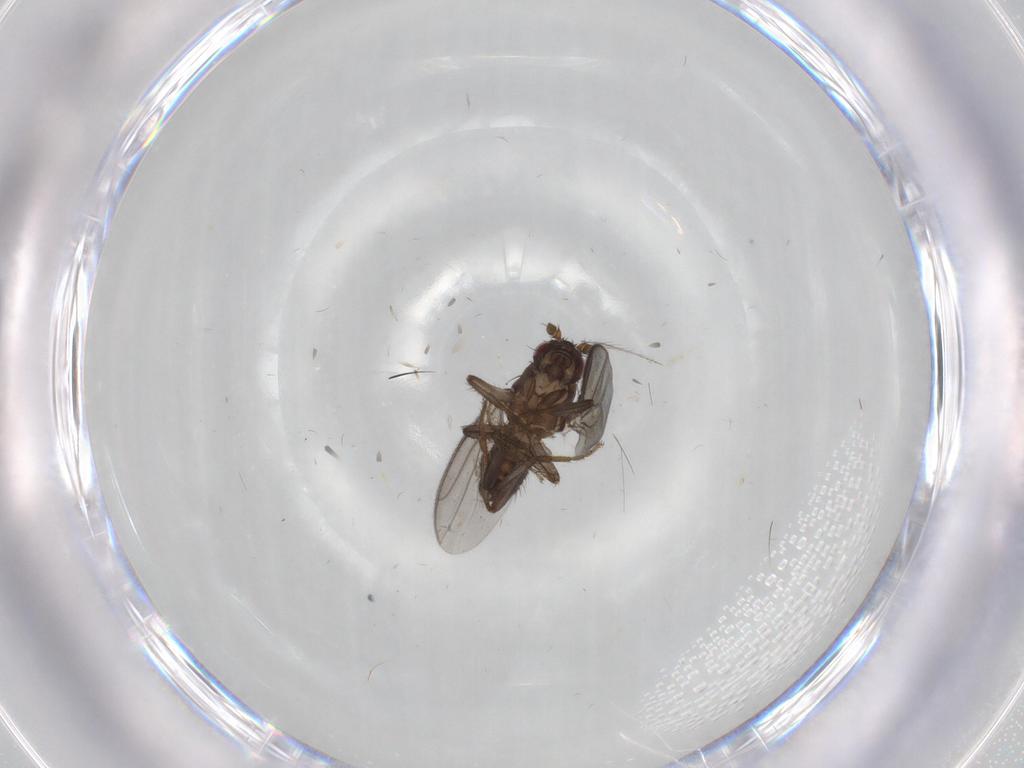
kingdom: Animalia
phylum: Arthropoda
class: Insecta
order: Diptera
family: Sphaeroceridae
